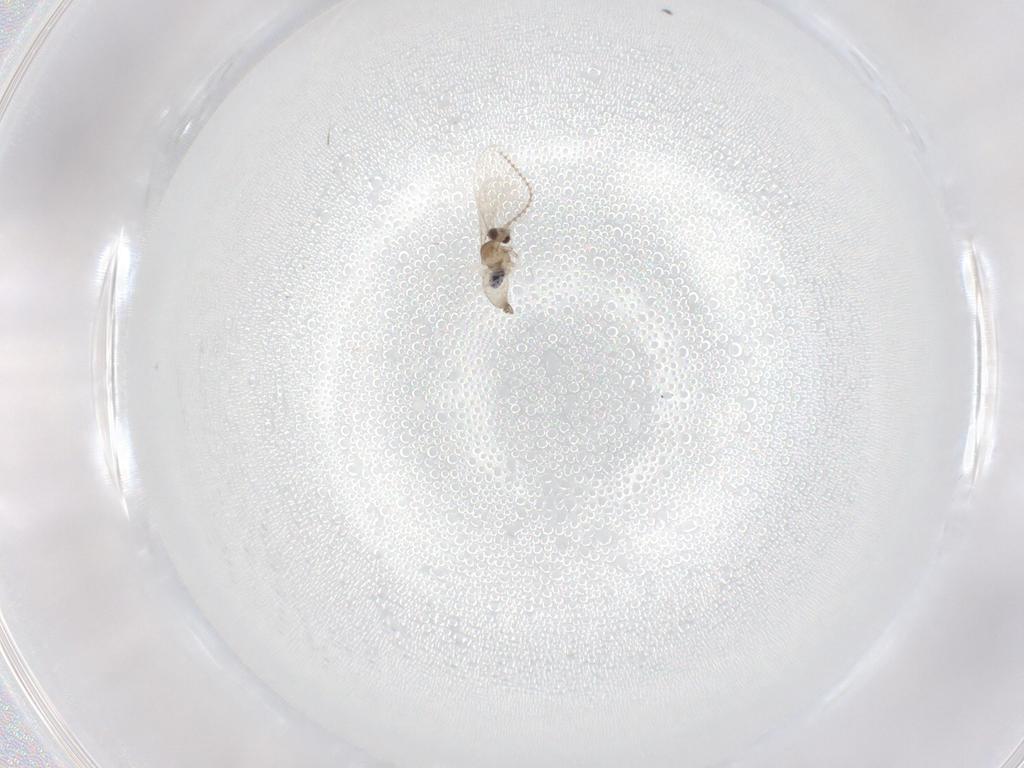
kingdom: Animalia
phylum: Arthropoda
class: Insecta
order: Diptera
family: Cecidomyiidae
